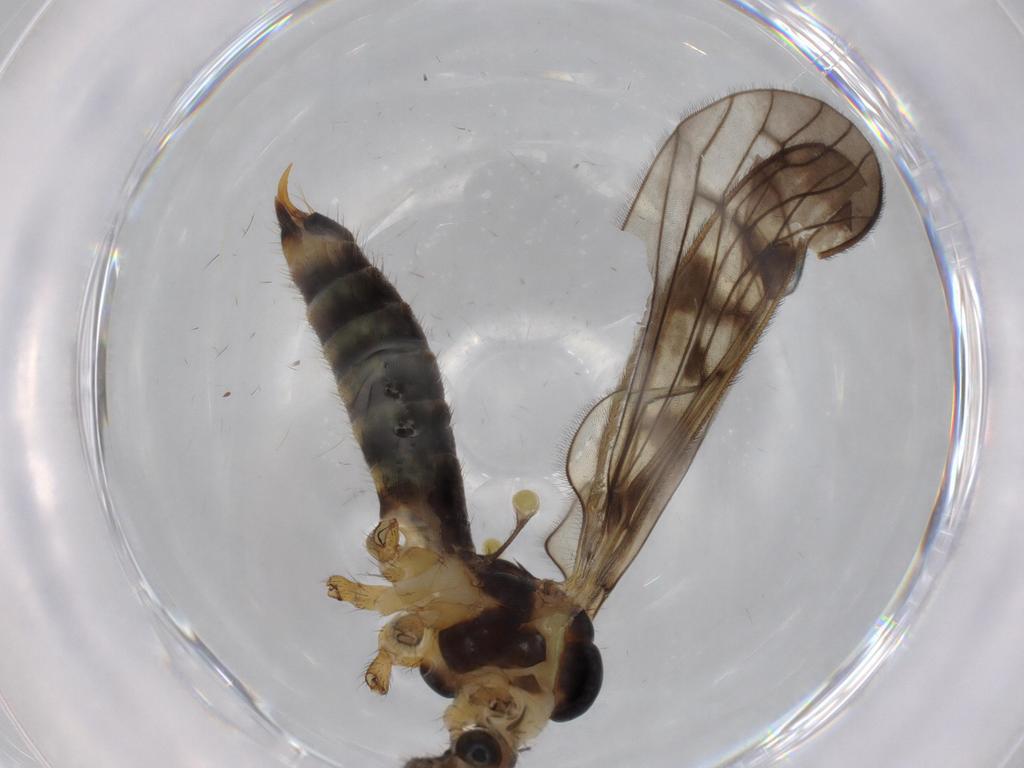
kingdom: Animalia
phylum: Arthropoda
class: Insecta
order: Diptera
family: Limoniidae
